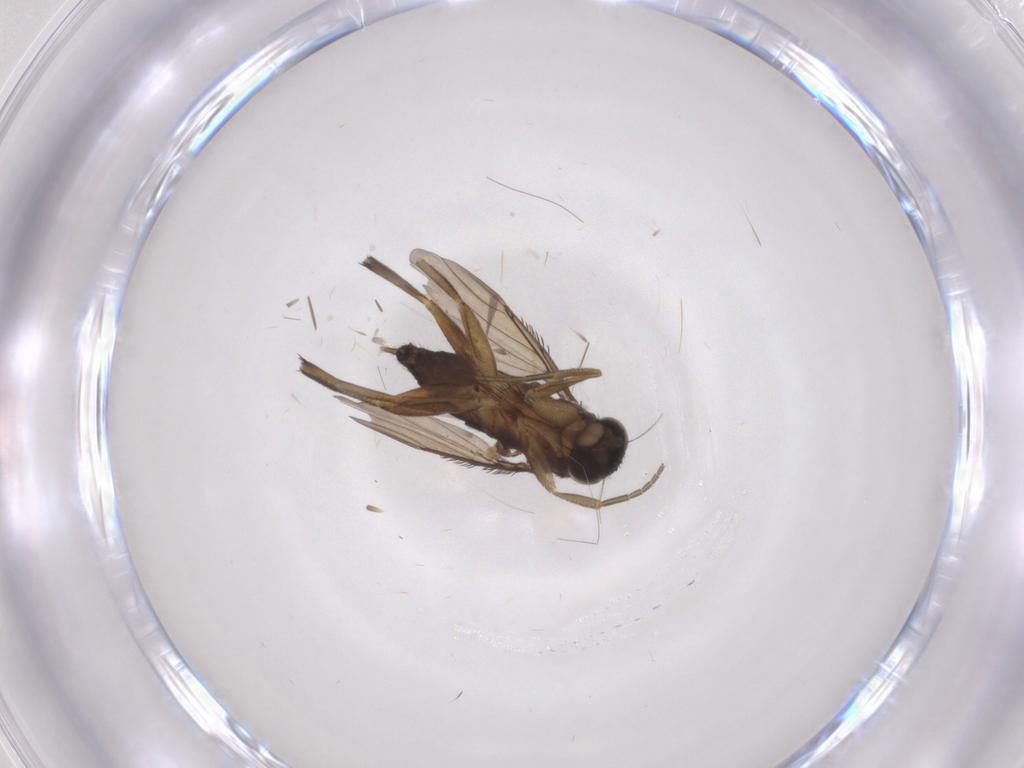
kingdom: Animalia
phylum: Arthropoda
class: Insecta
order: Diptera
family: Phoridae
